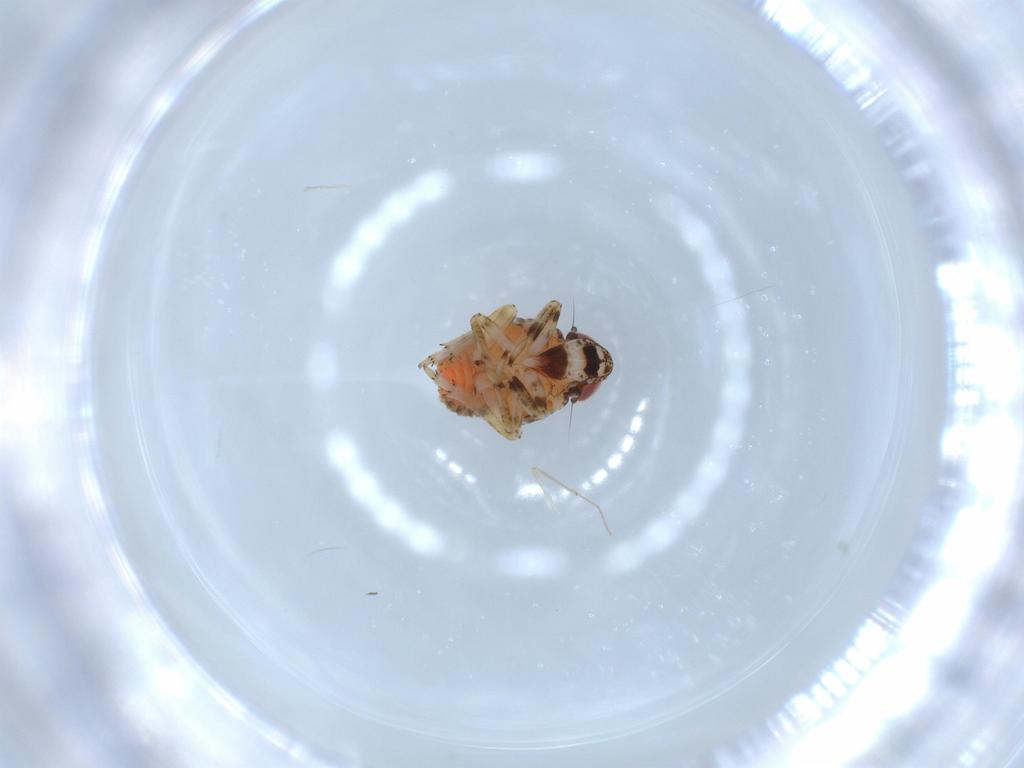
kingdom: Animalia
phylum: Arthropoda
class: Insecta
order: Hemiptera
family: Issidae
